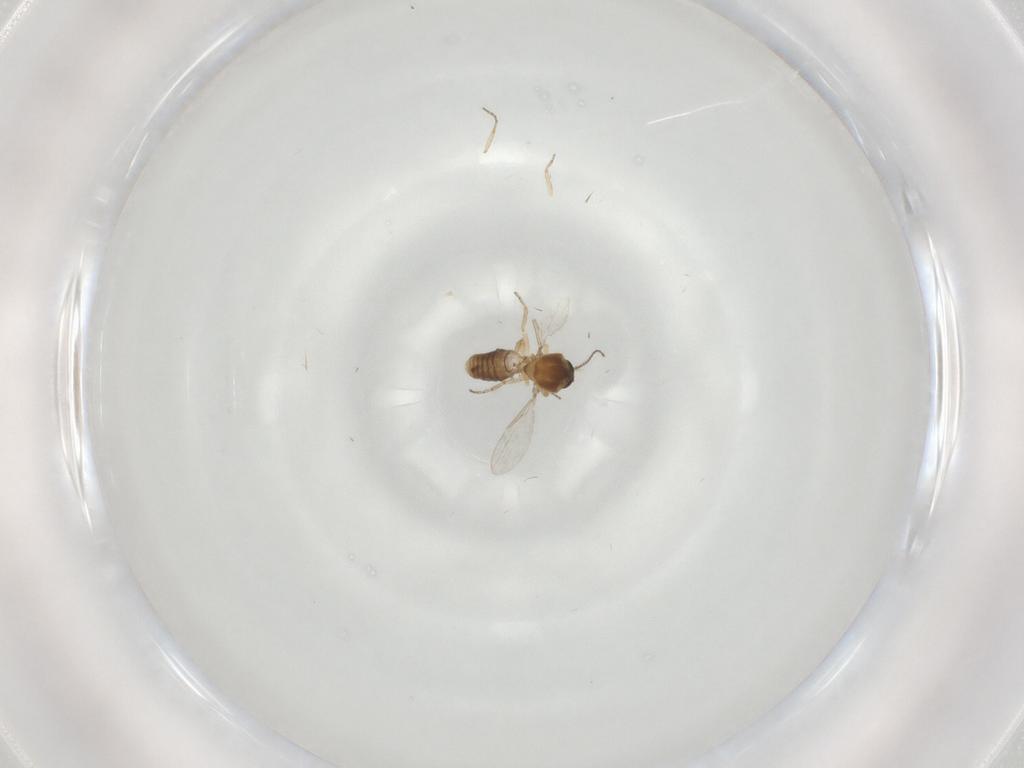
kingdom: Animalia
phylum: Arthropoda
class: Insecta
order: Diptera
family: Ceratopogonidae
